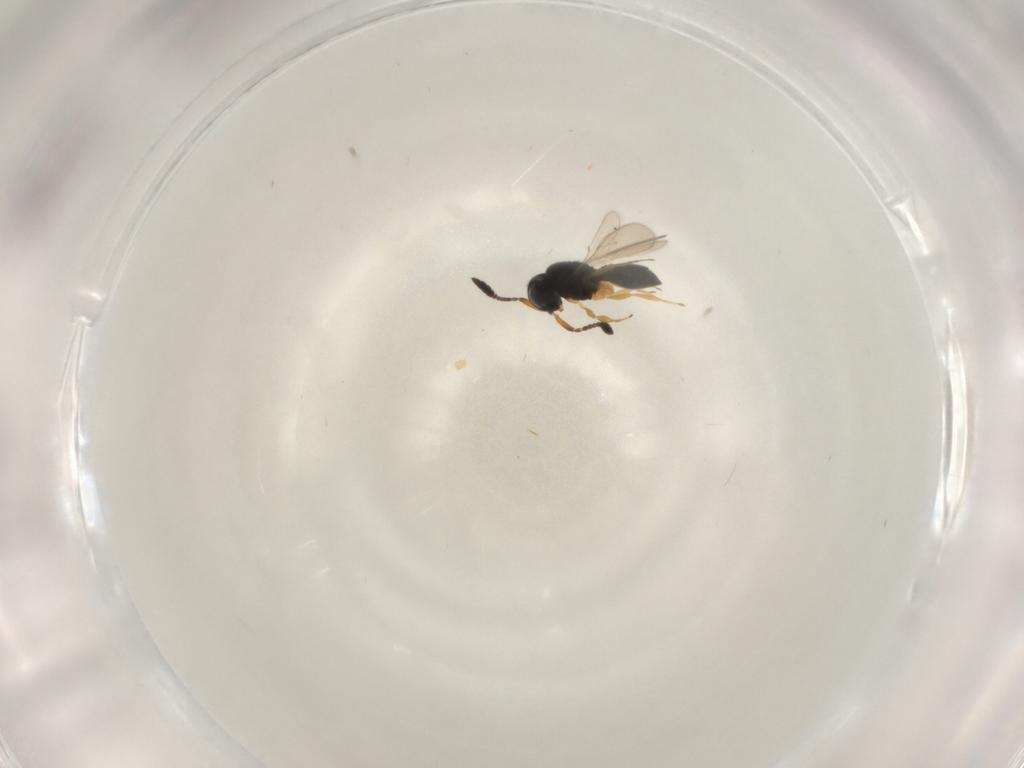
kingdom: Animalia
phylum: Arthropoda
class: Insecta
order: Hymenoptera
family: Scelionidae
